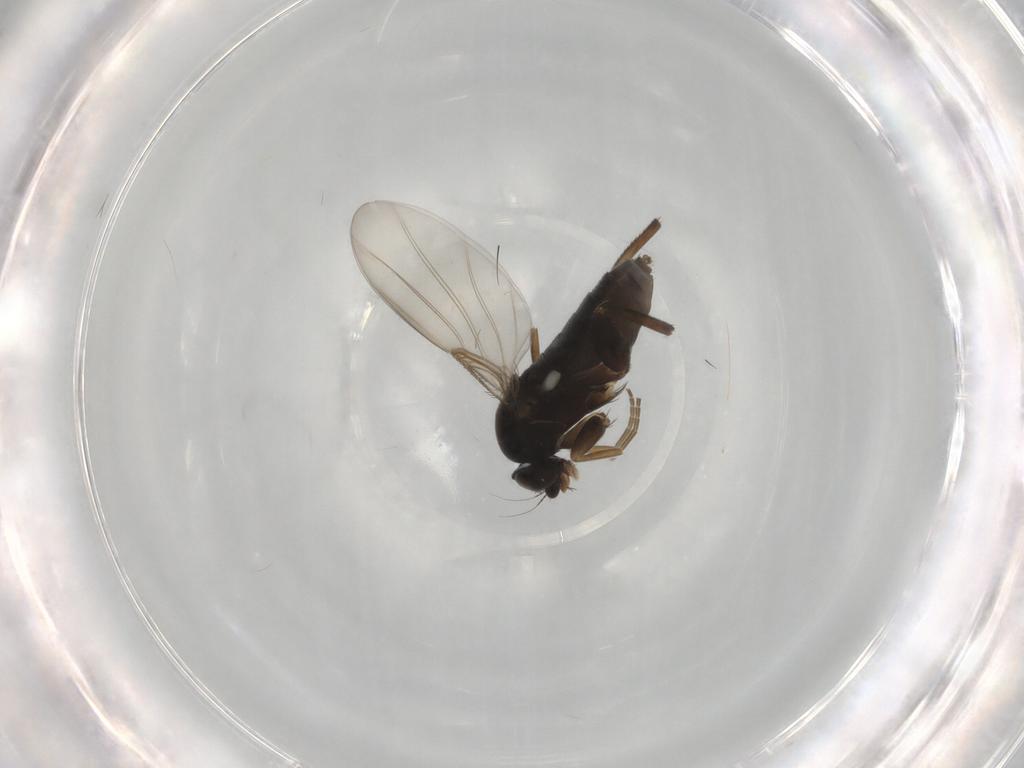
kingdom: Animalia
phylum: Arthropoda
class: Insecta
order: Diptera
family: Phoridae
